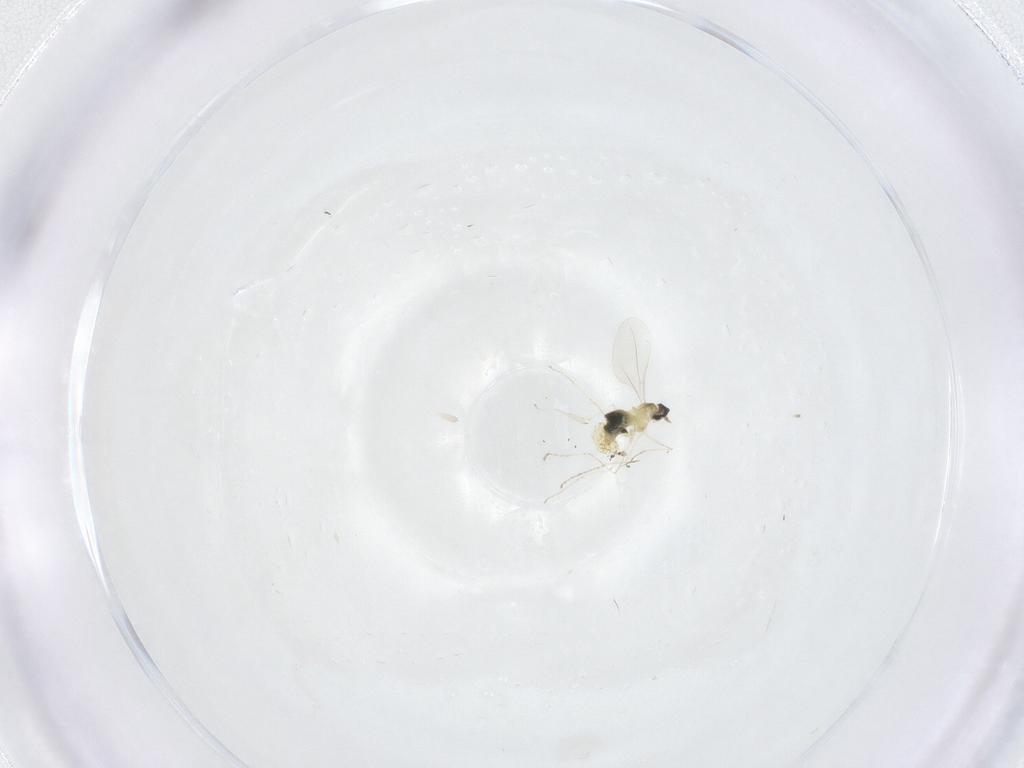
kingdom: Animalia
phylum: Arthropoda
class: Insecta
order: Diptera
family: Cecidomyiidae
